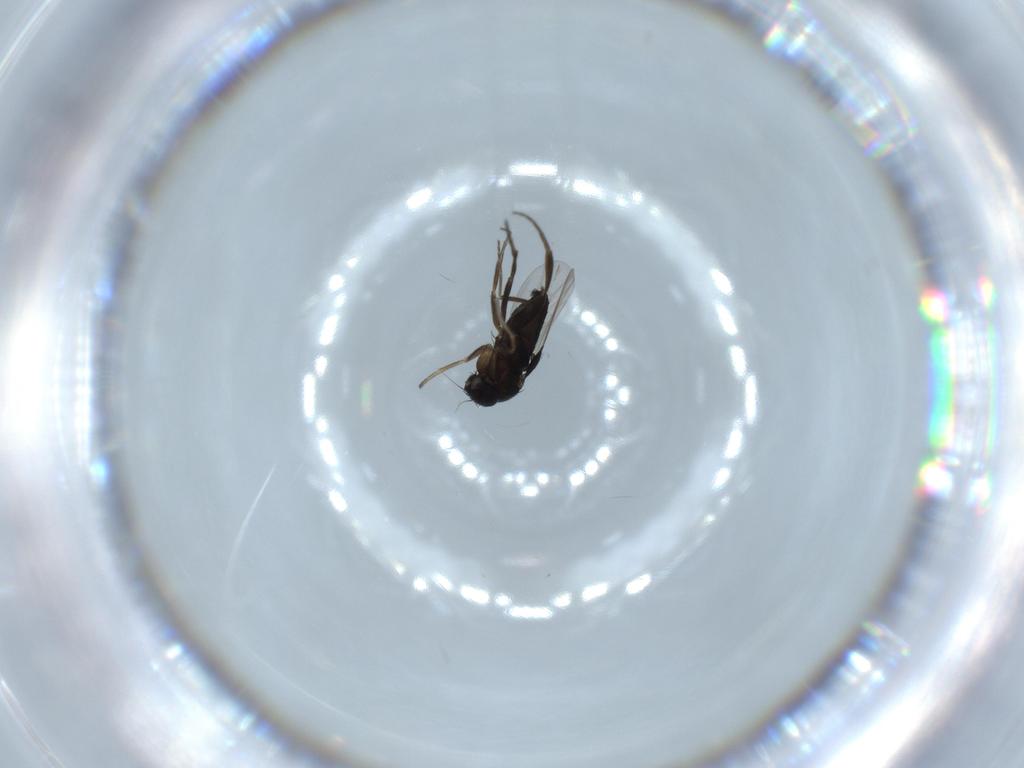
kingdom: Animalia
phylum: Arthropoda
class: Insecta
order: Diptera
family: Phoridae
